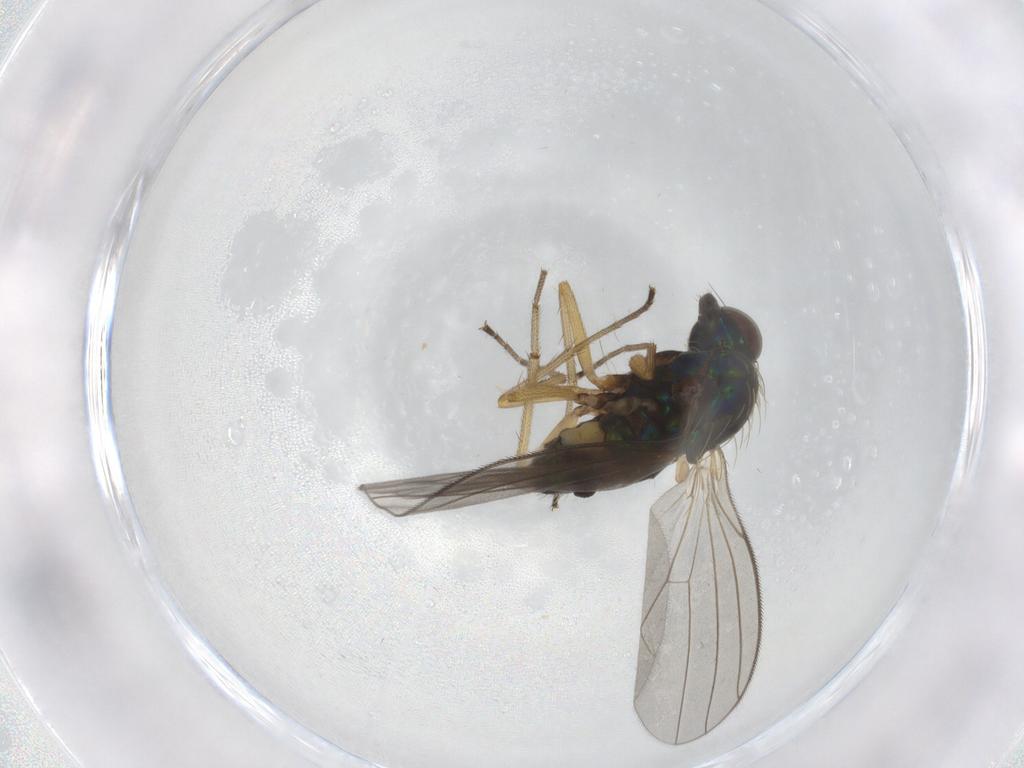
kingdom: Animalia
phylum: Arthropoda
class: Insecta
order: Diptera
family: Dolichopodidae
